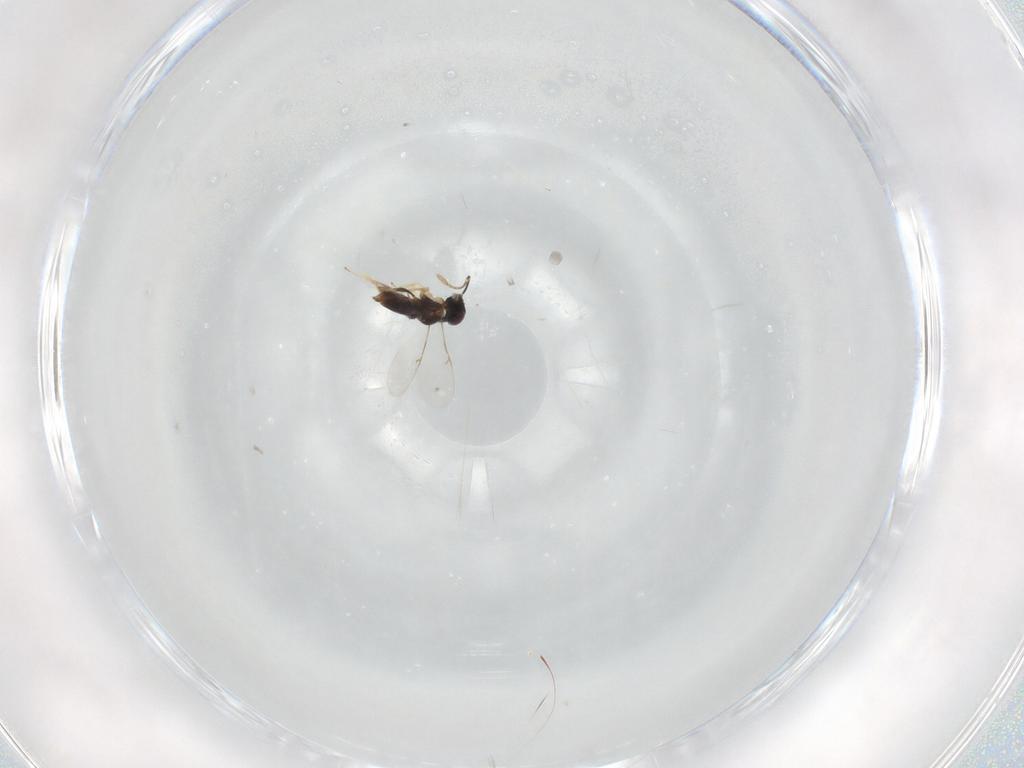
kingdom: Animalia
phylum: Arthropoda
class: Insecta
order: Hymenoptera
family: Encyrtidae
